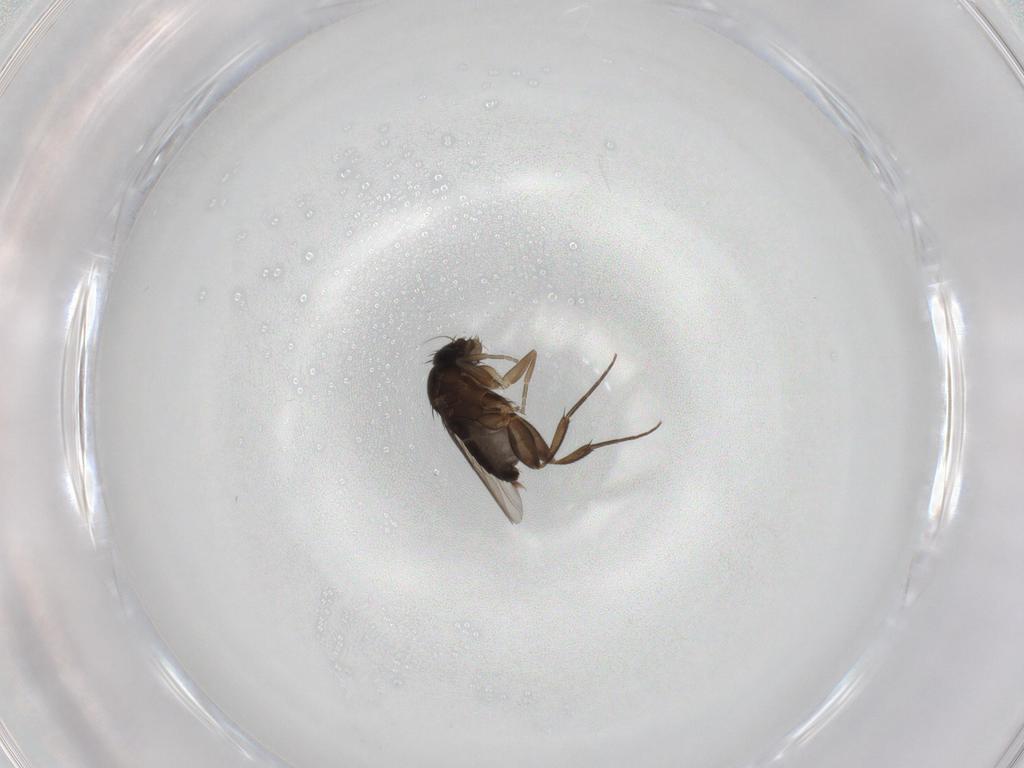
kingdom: Animalia
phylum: Arthropoda
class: Insecta
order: Diptera
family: Phoridae
